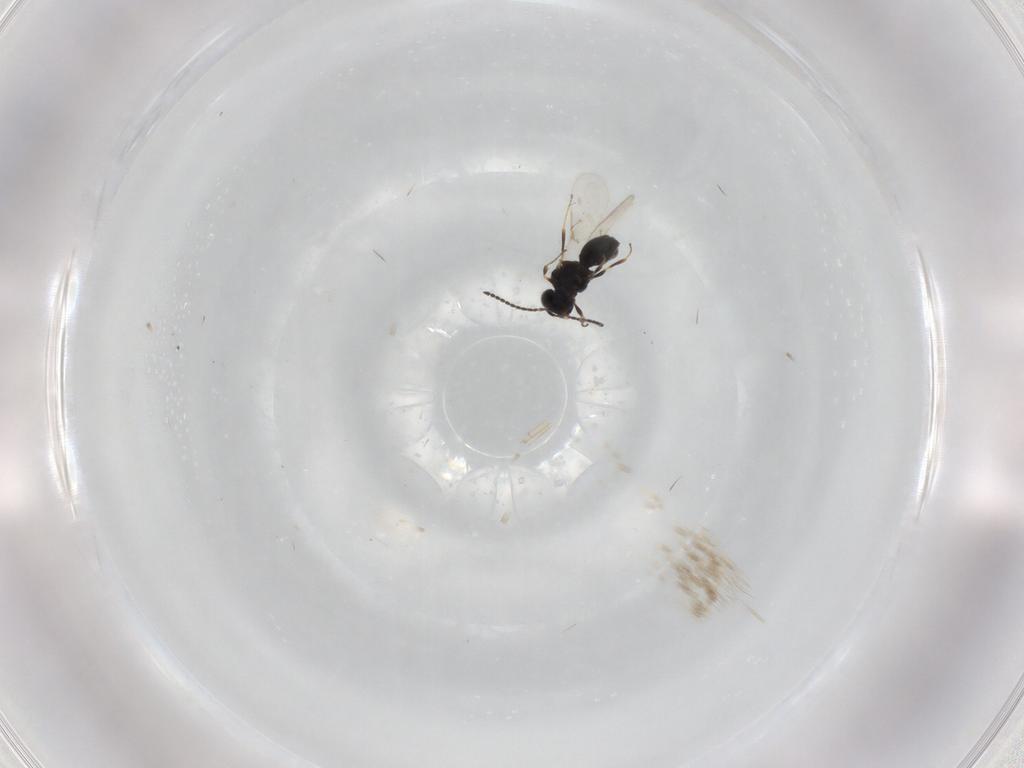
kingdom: Animalia
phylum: Arthropoda
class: Insecta
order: Hymenoptera
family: Scelionidae
